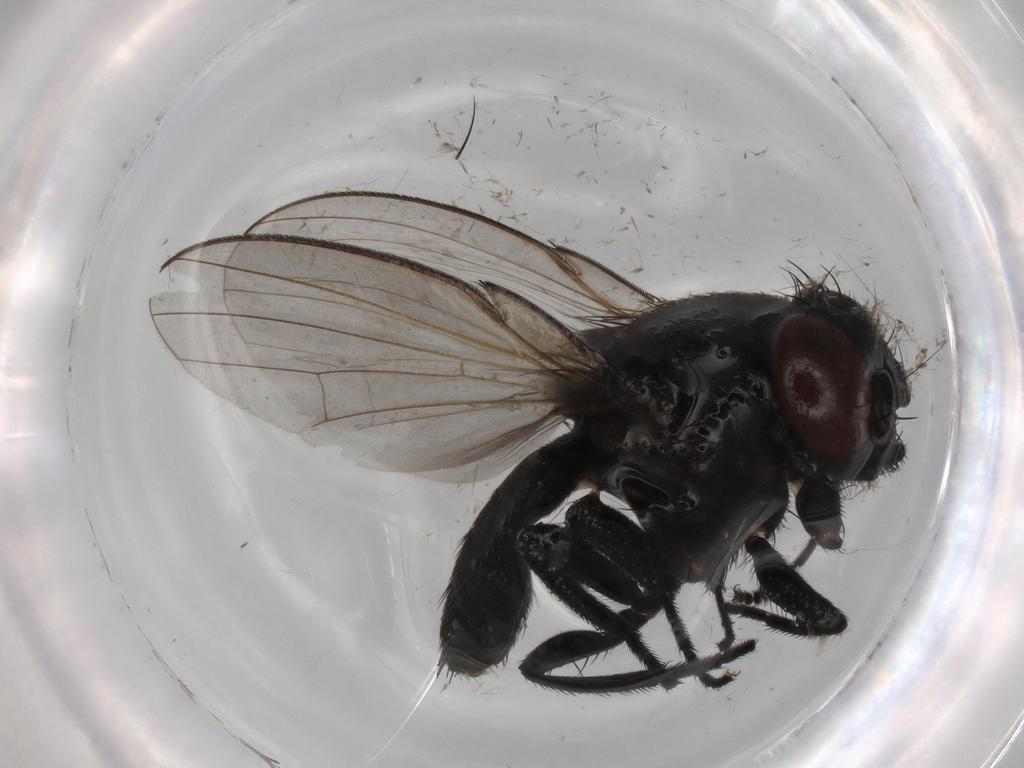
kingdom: Animalia
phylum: Arthropoda
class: Insecta
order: Diptera
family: Milichiidae
